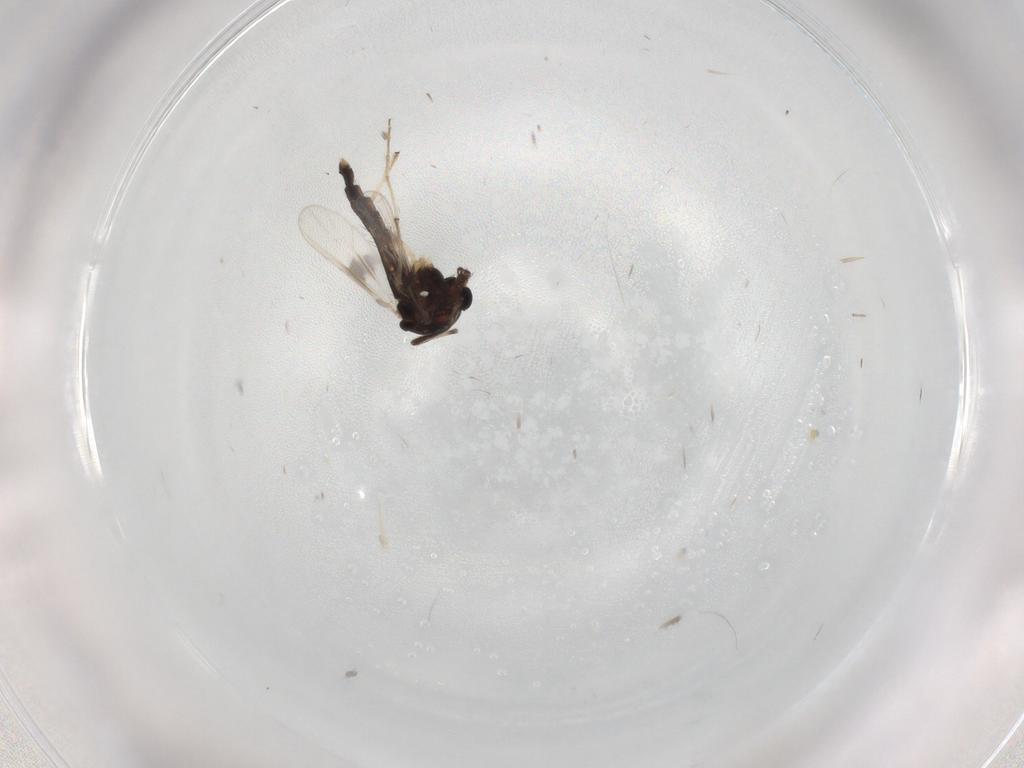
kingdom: Animalia
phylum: Arthropoda
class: Insecta
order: Diptera
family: Chironomidae
